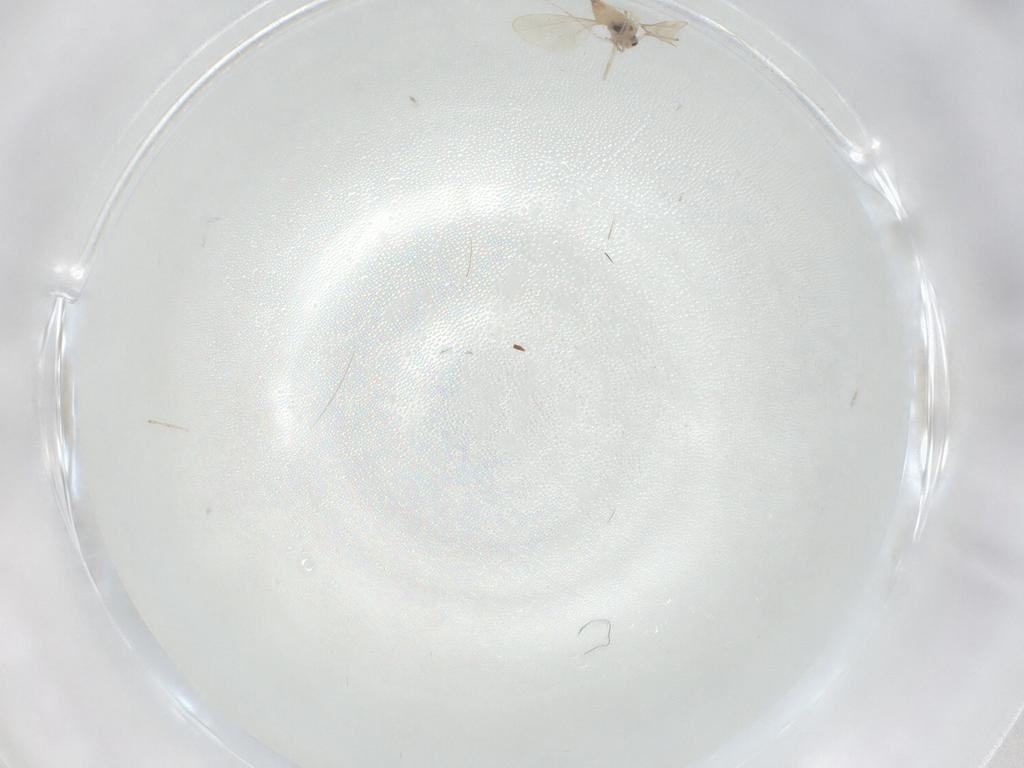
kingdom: Animalia
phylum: Arthropoda
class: Insecta
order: Diptera
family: Cecidomyiidae
